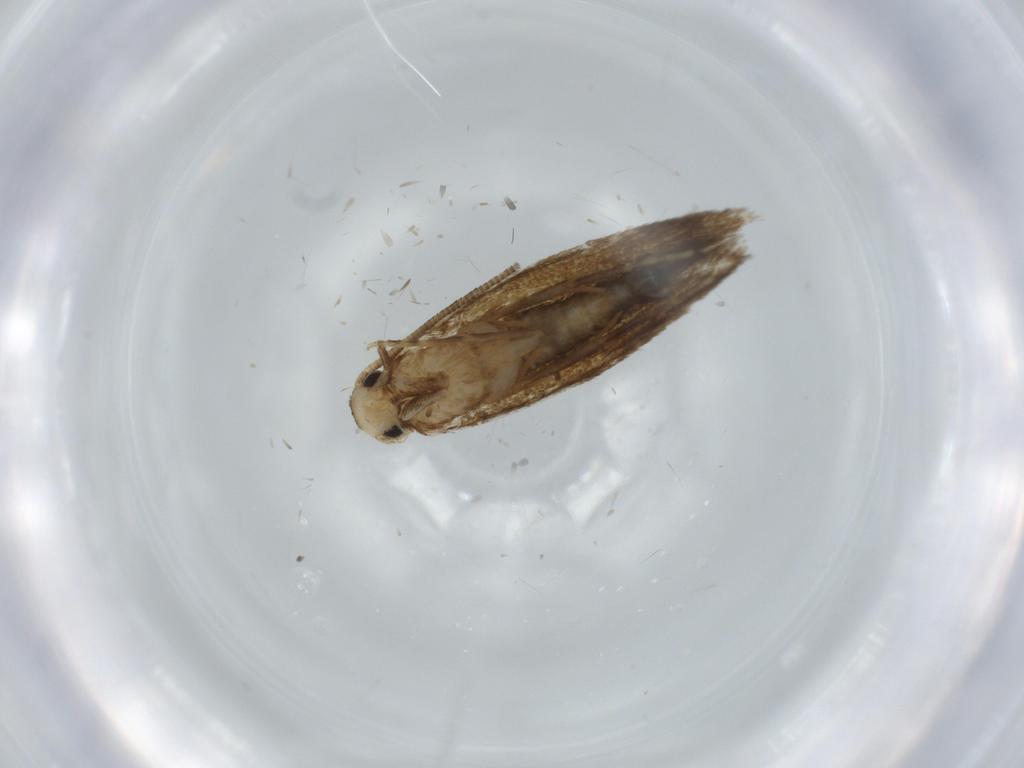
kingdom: Animalia
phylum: Arthropoda
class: Insecta
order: Lepidoptera
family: Tineidae
